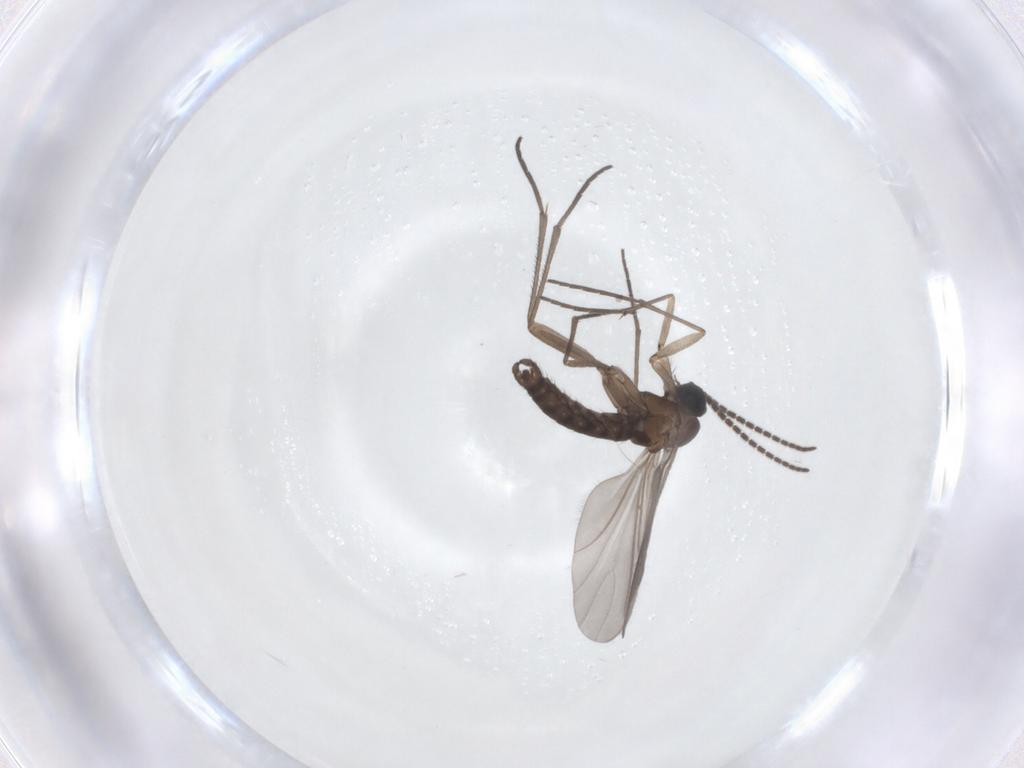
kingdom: Animalia
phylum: Arthropoda
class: Insecta
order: Diptera
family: Sciaridae
